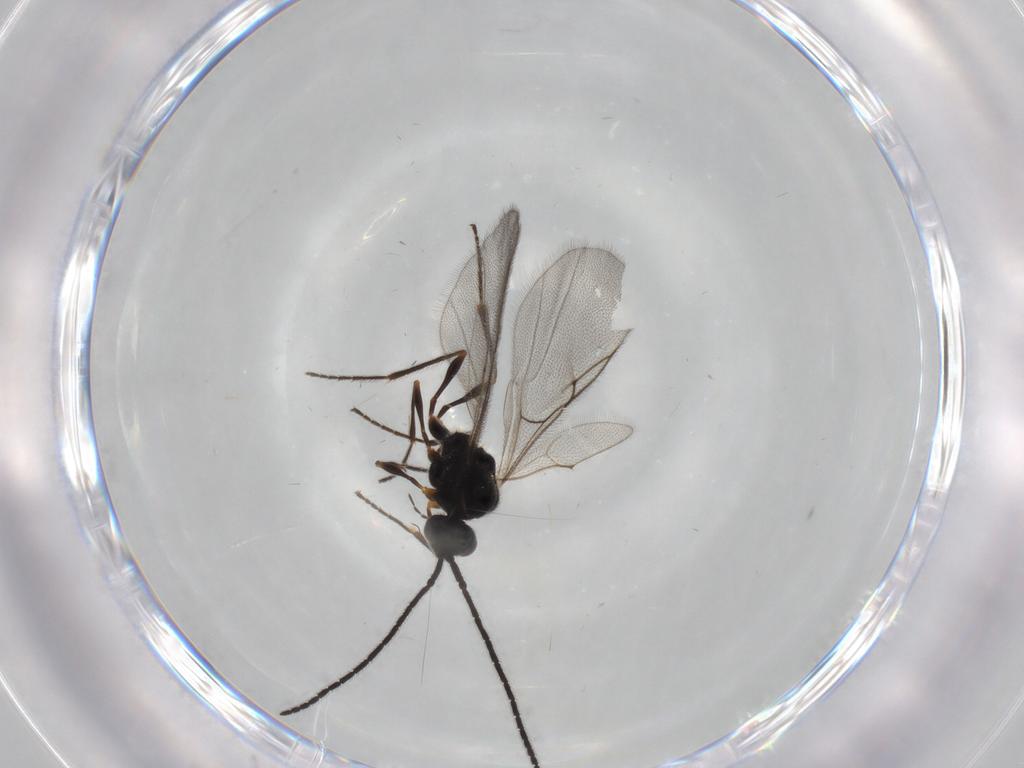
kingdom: Animalia
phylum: Arthropoda
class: Insecta
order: Hymenoptera
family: Diapriidae
